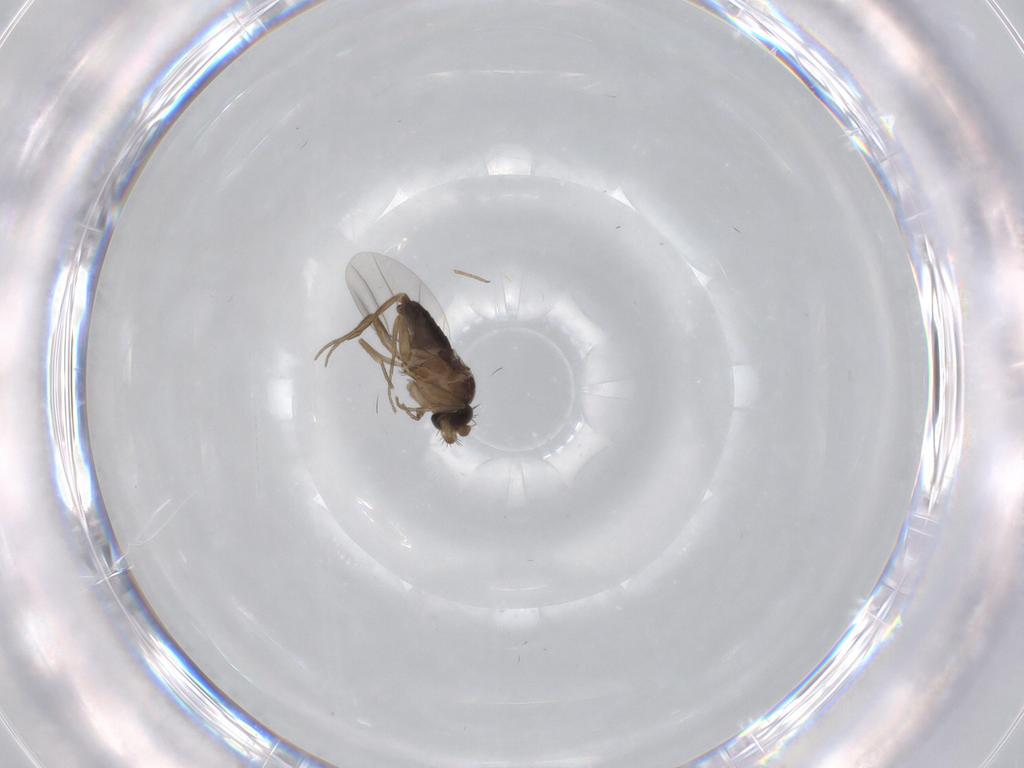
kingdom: Animalia
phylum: Arthropoda
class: Insecta
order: Diptera
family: Phoridae
